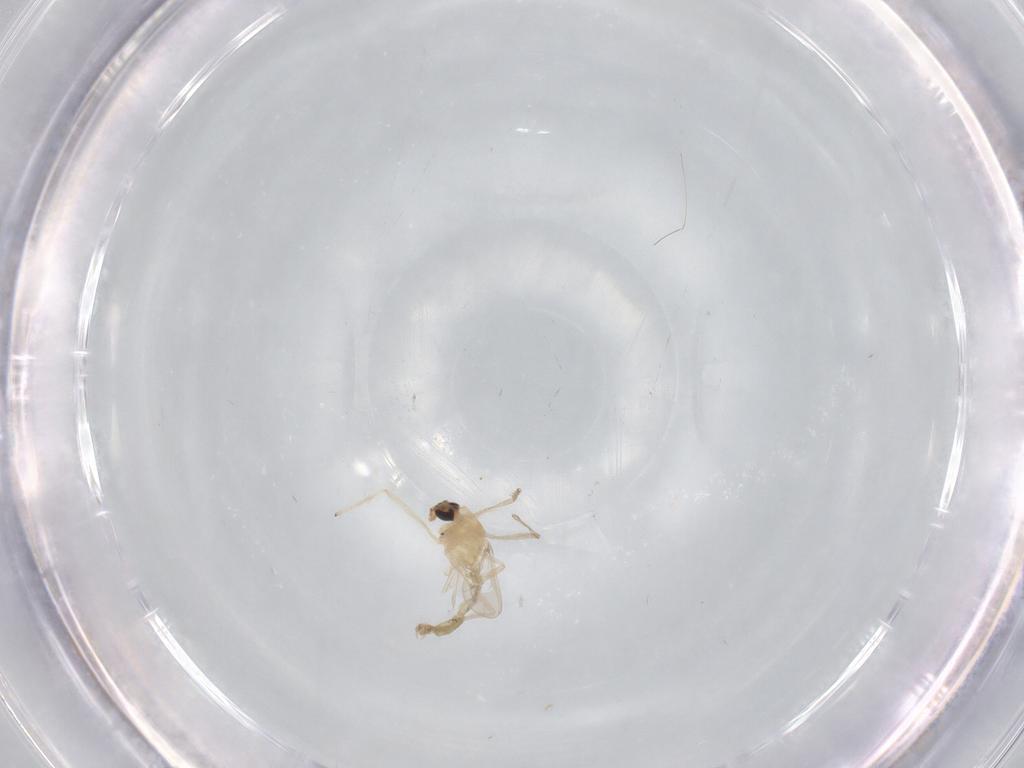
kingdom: Animalia
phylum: Arthropoda
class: Insecta
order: Diptera
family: Chironomidae
